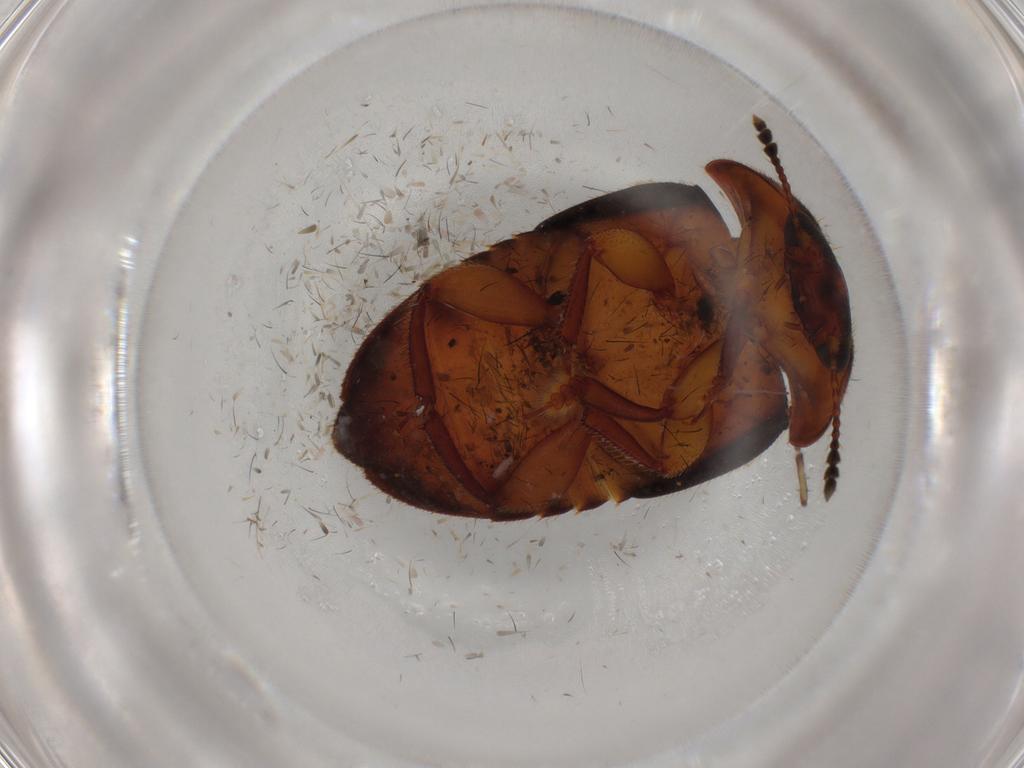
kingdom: Animalia
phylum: Arthropoda
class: Insecta
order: Coleoptera
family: Nitidulidae
